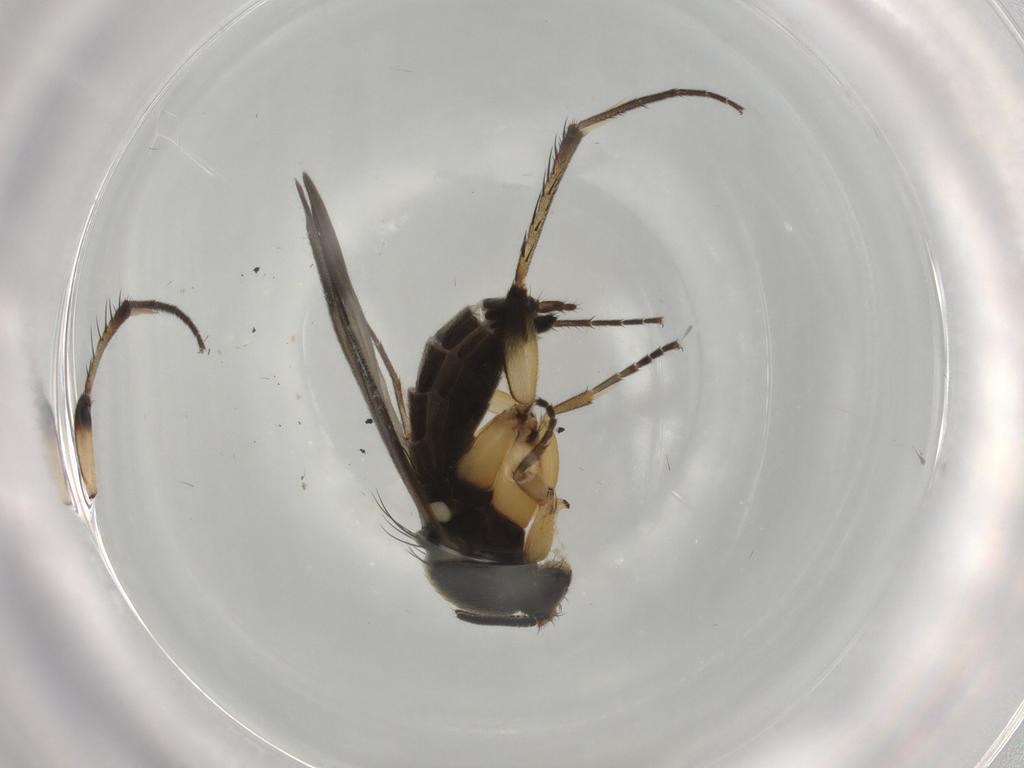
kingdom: Animalia
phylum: Arthropoda
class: Insecta
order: Diptera
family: Mycetophilidae
